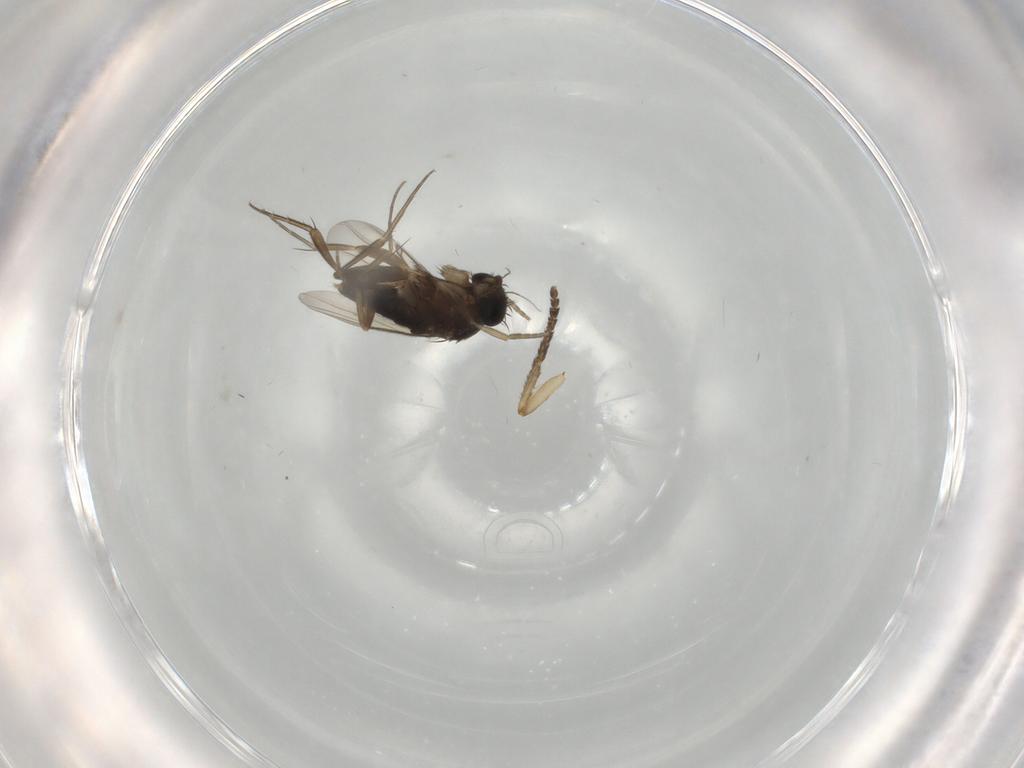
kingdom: Animalia
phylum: Arthropoda
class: Insecta
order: Diptera
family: Phoridae
